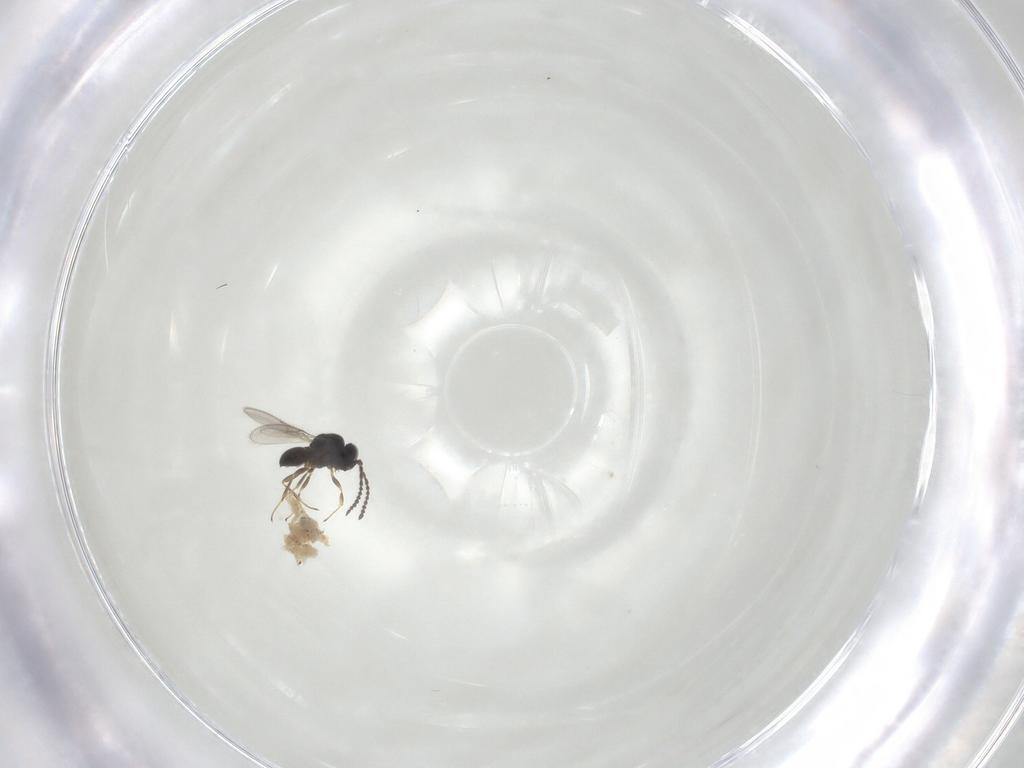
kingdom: Animalia
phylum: Arthropoda
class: Insecta
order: Hymenoptera
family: Scelionidae
